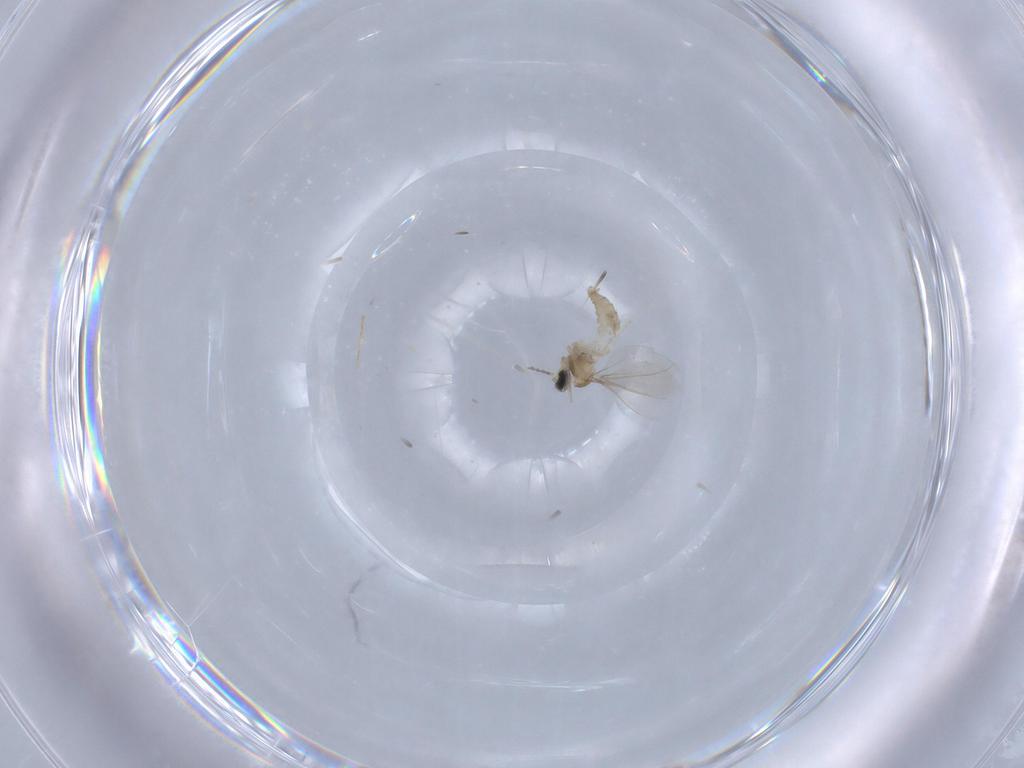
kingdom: Animalia
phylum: Arthropoda
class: Insecta
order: Diptera
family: Cecidomyiidae
